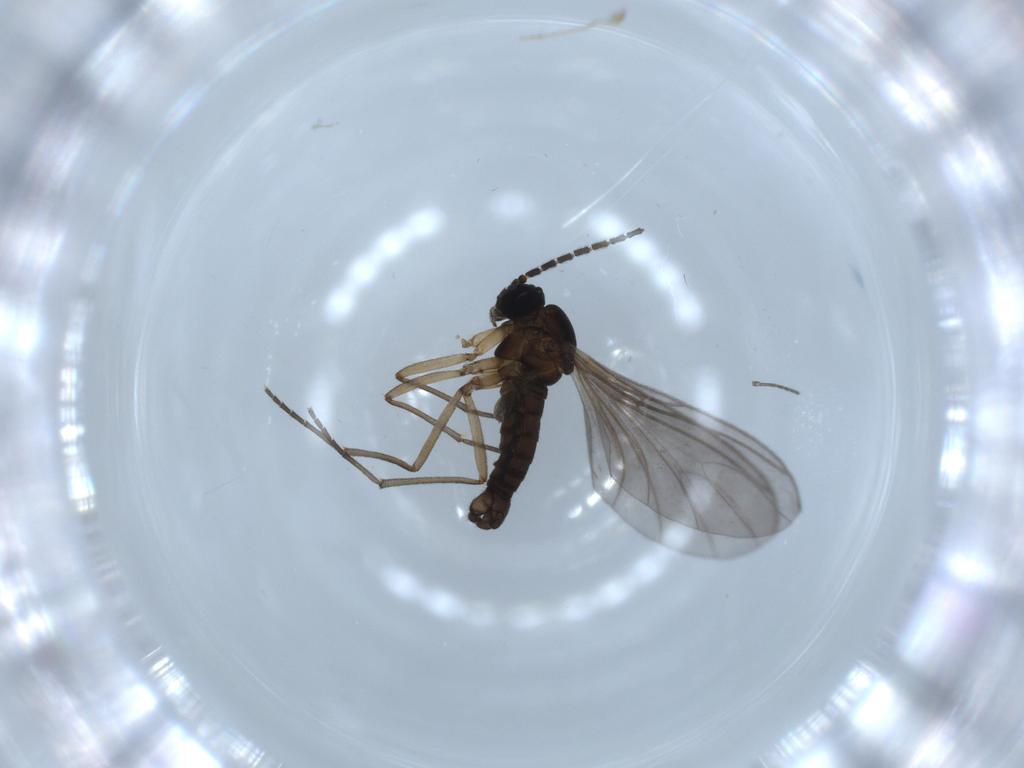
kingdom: Animalia
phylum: Arthropoda
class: Insecta
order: Diptera
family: Sciaridae
